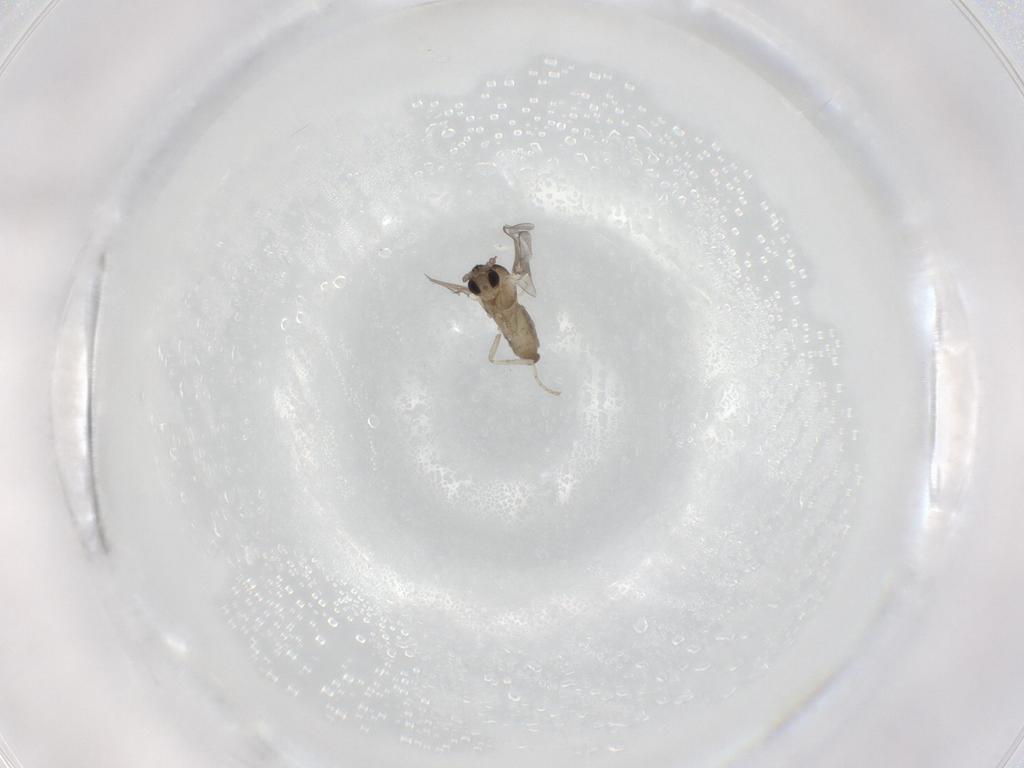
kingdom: Animalia
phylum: Arthropoda
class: Insecta
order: Diptera
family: Cecidomyiidae
